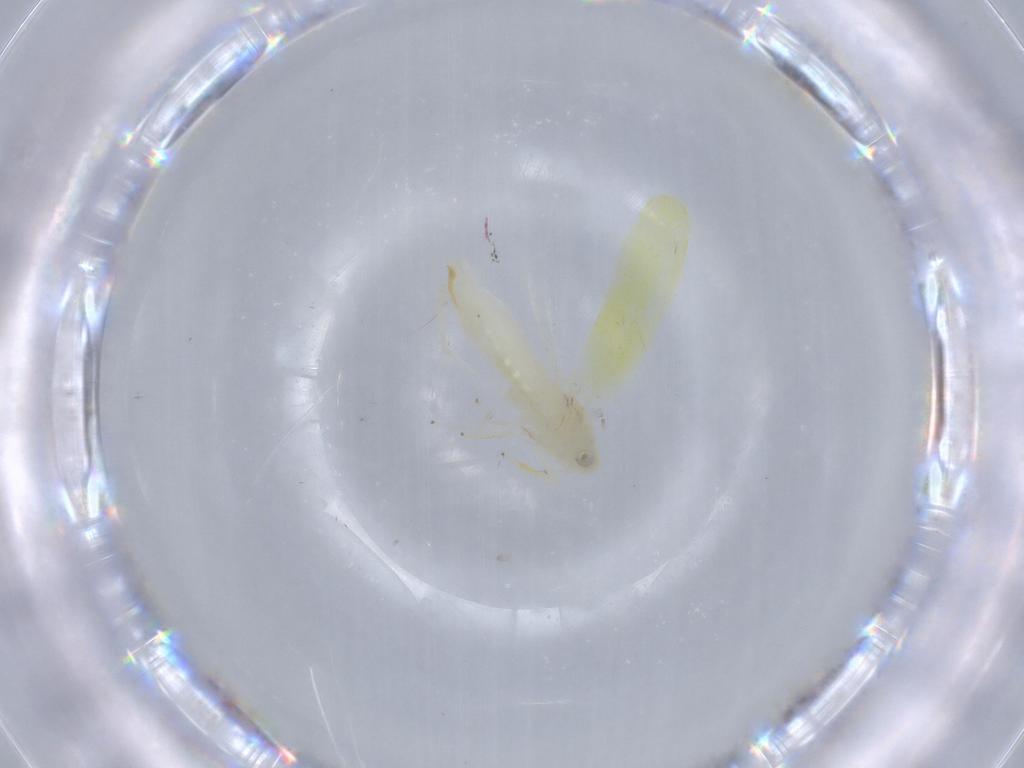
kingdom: Animalia
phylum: Arthropoda
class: Insecta
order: Hemiptera
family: Cicadellidae
